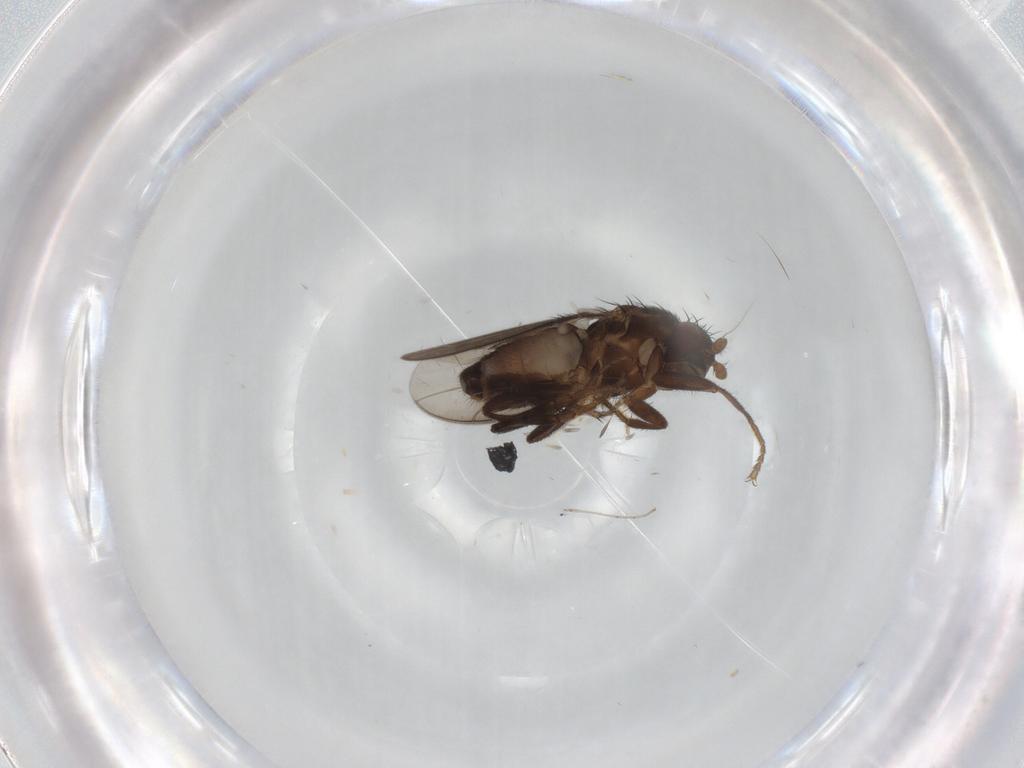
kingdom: Animalia
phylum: Arthropoda
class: Insecta
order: Diptera
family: Sphaeroceridae
